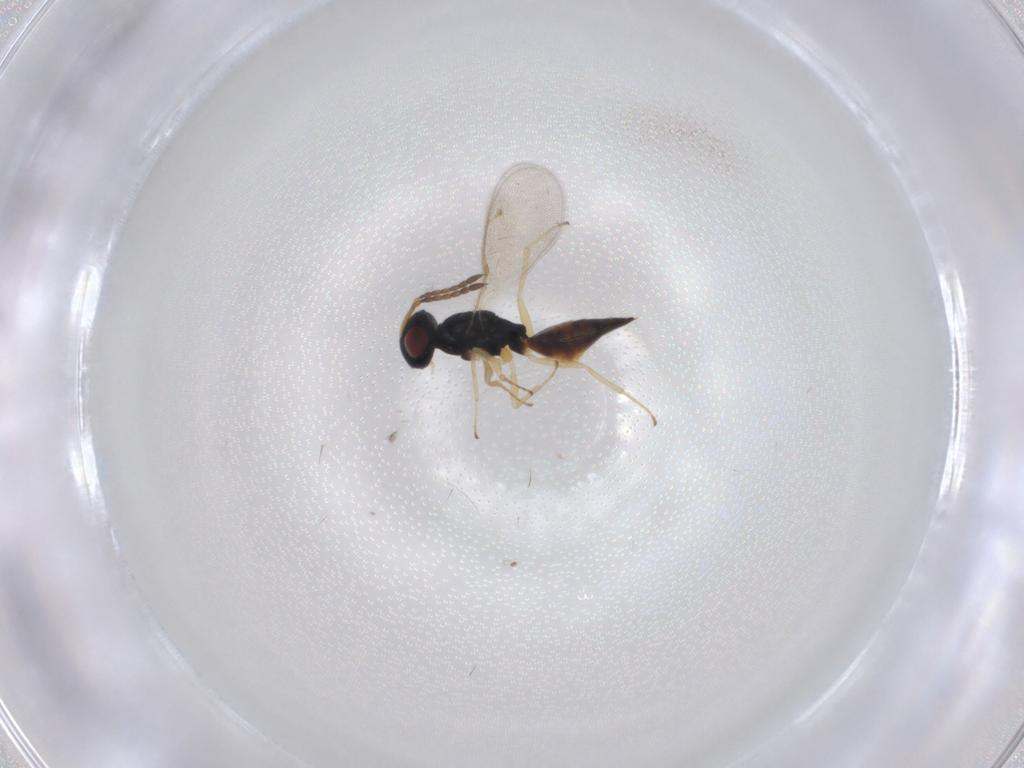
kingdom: Animalia
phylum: Arthropoda
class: Insecta
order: Hymenoptera
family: Pteromalidae
